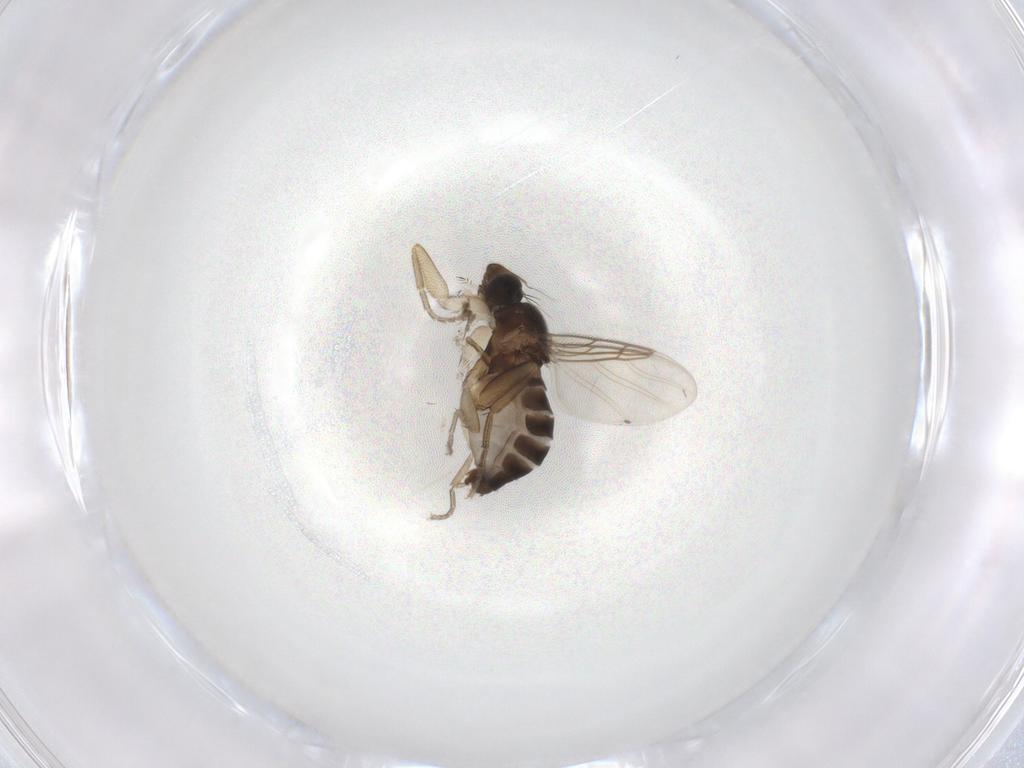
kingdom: Animalia
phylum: Arthropoda
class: Insecta
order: Diptera
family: Phoridae
